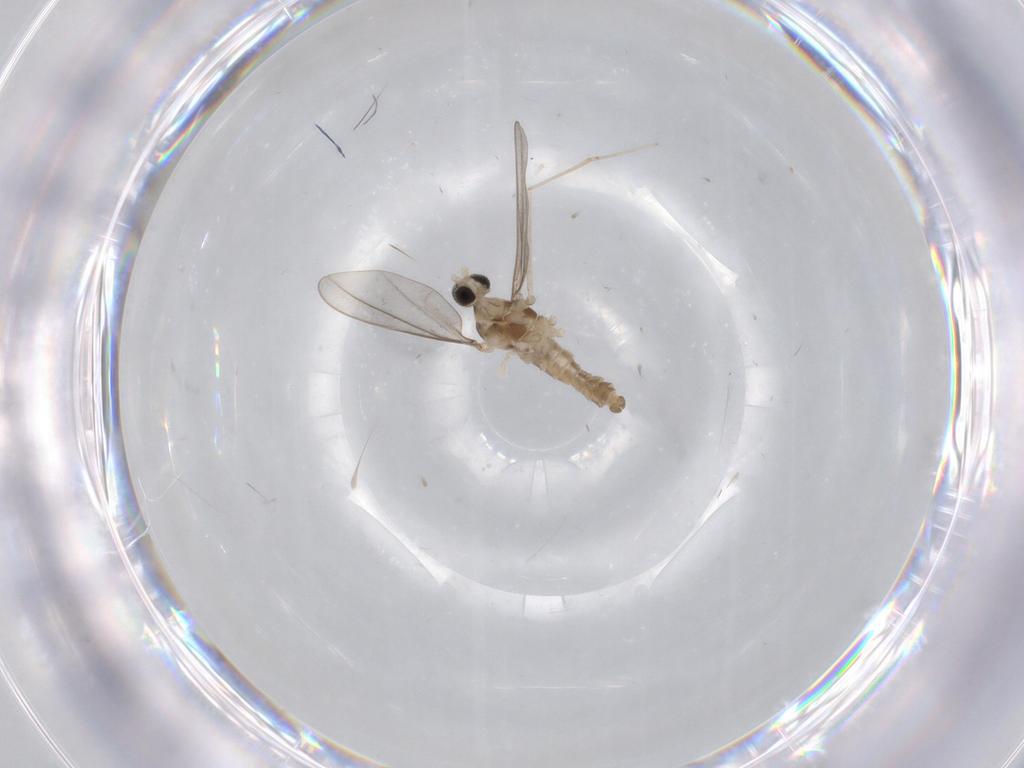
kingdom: Animalia
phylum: Arthropoda
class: Insecta
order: Diptera
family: Cecidomyiidae
